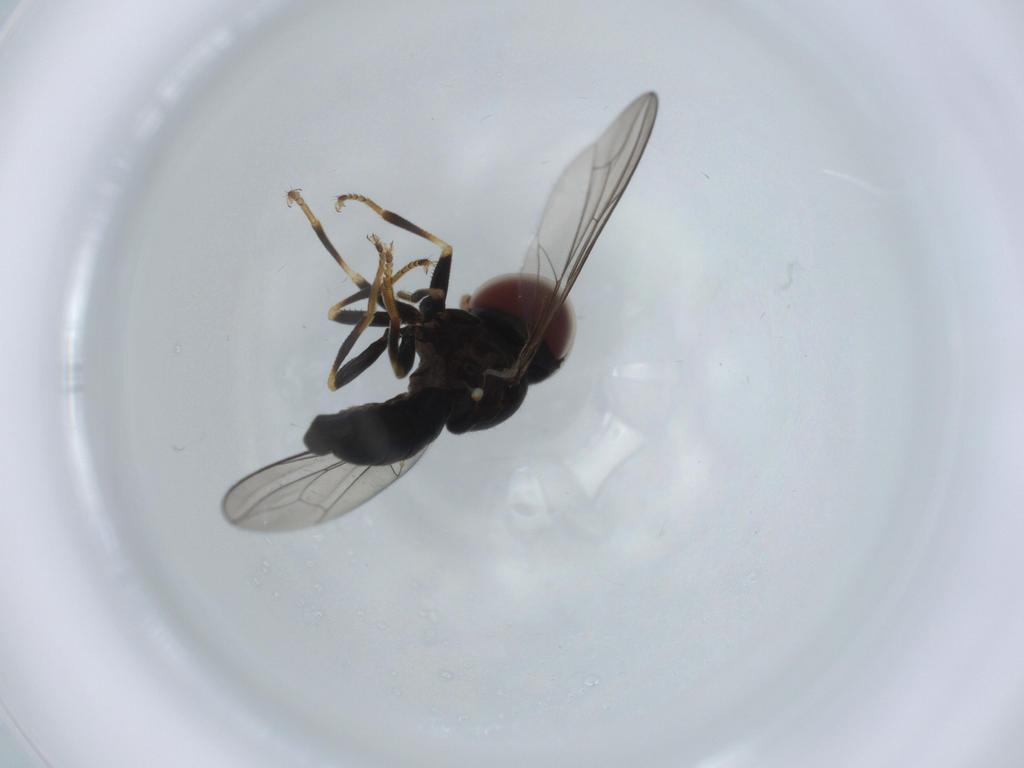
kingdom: Animalia
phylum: Arthropoda
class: Insecta
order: Diptera
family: Pipunculidae
